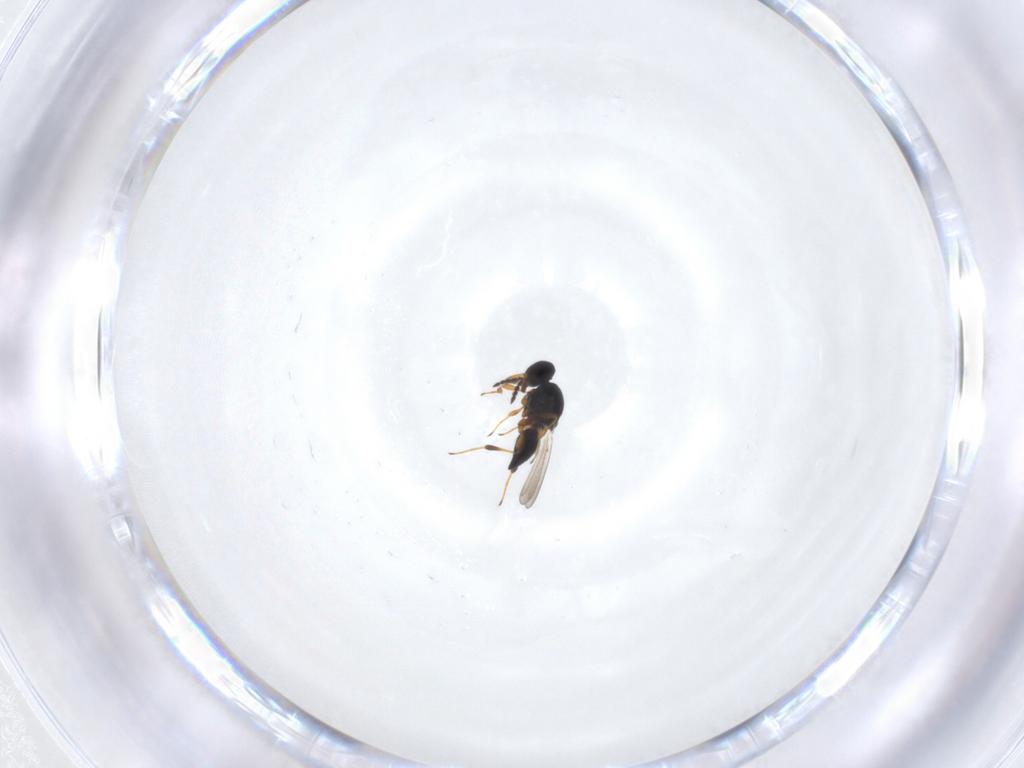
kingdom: Animalia
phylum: Arthropoda
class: Insecta
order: Hymenoptera
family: Platygastridae
